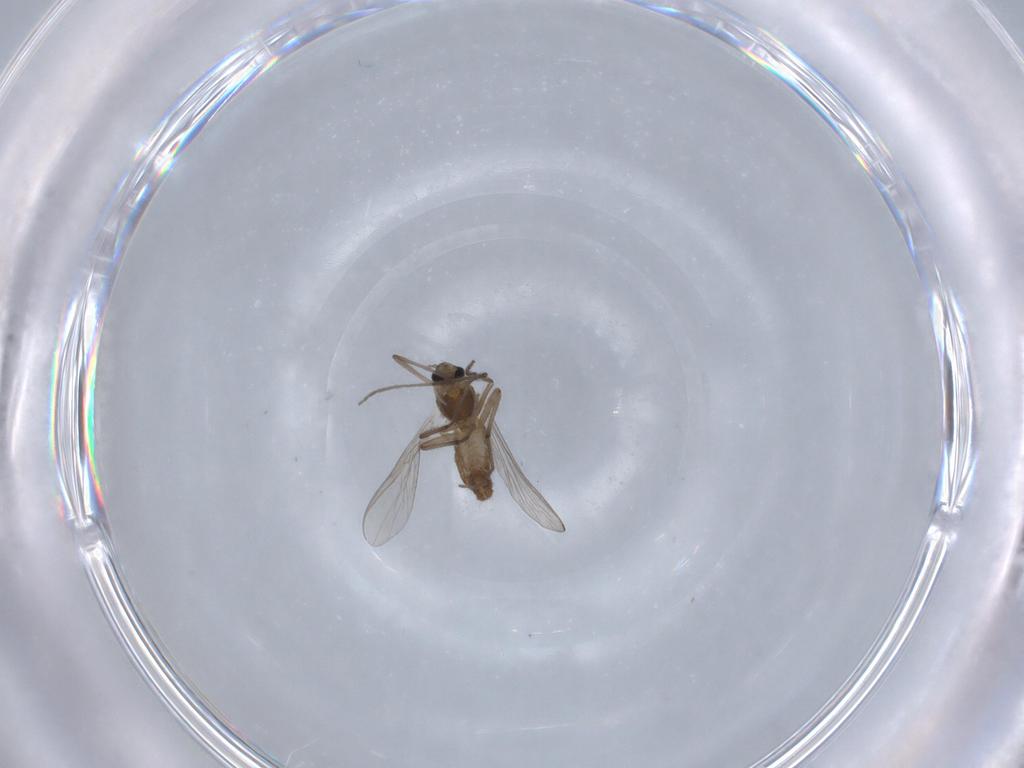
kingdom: Animalia
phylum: Arthropoda
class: Insecta
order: Diptera
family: Chironomidae
